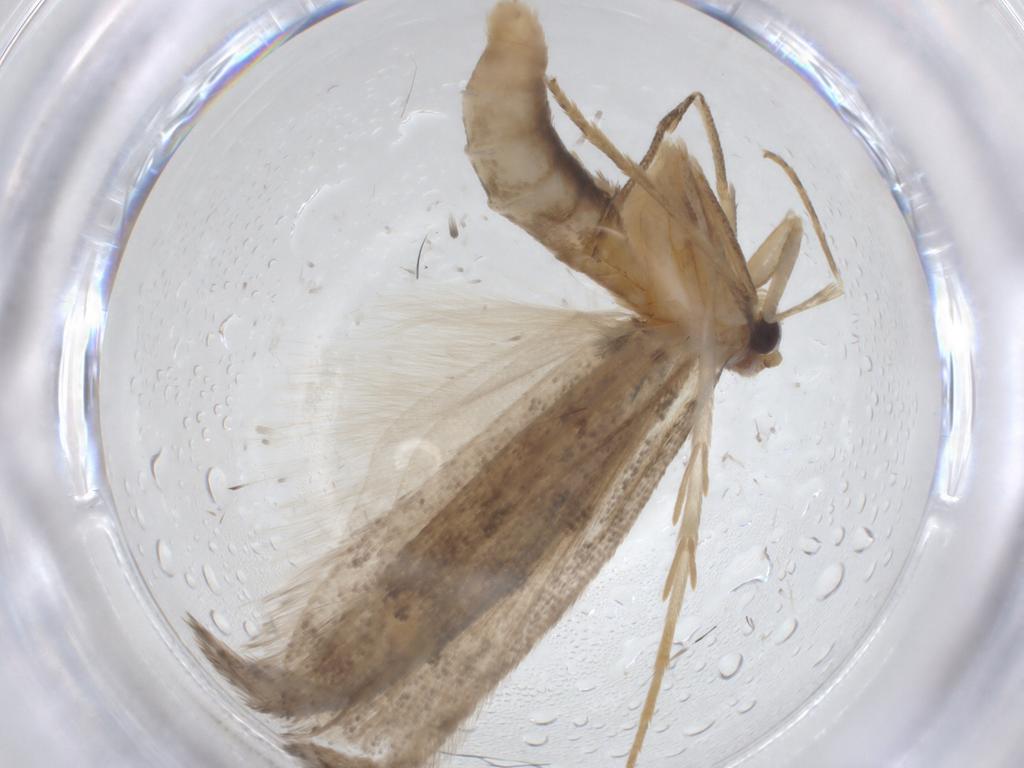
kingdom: Animalia
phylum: Arthropoda
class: Insecta
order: Lepidoptera
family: Carposinidae
